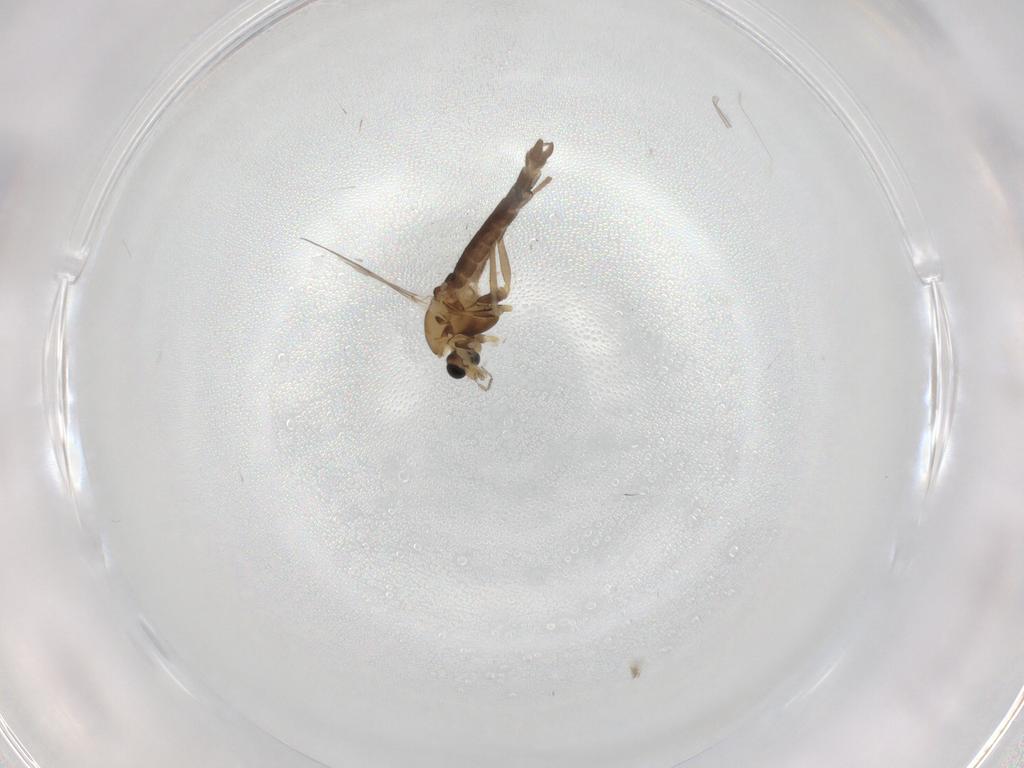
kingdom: Animalia
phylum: Arthropoda
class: Insecta
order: Diptera
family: Chironomidae
